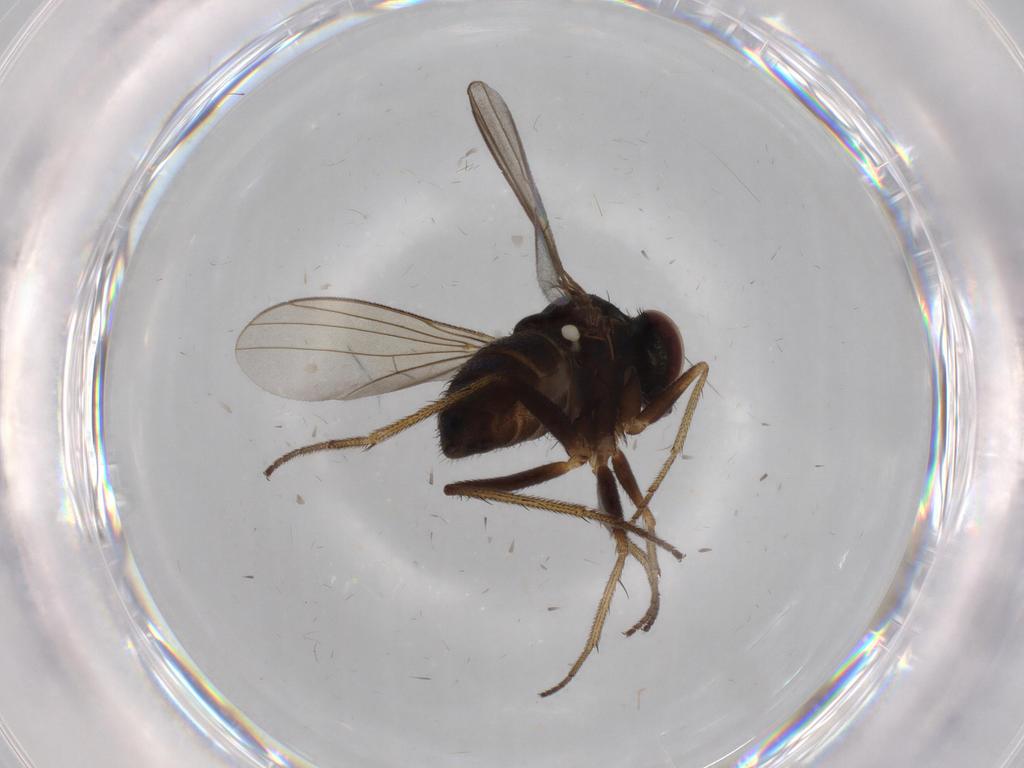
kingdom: Animalia
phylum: Arthropoda
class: Insecta
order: Diptera
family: Dolichopodidae
